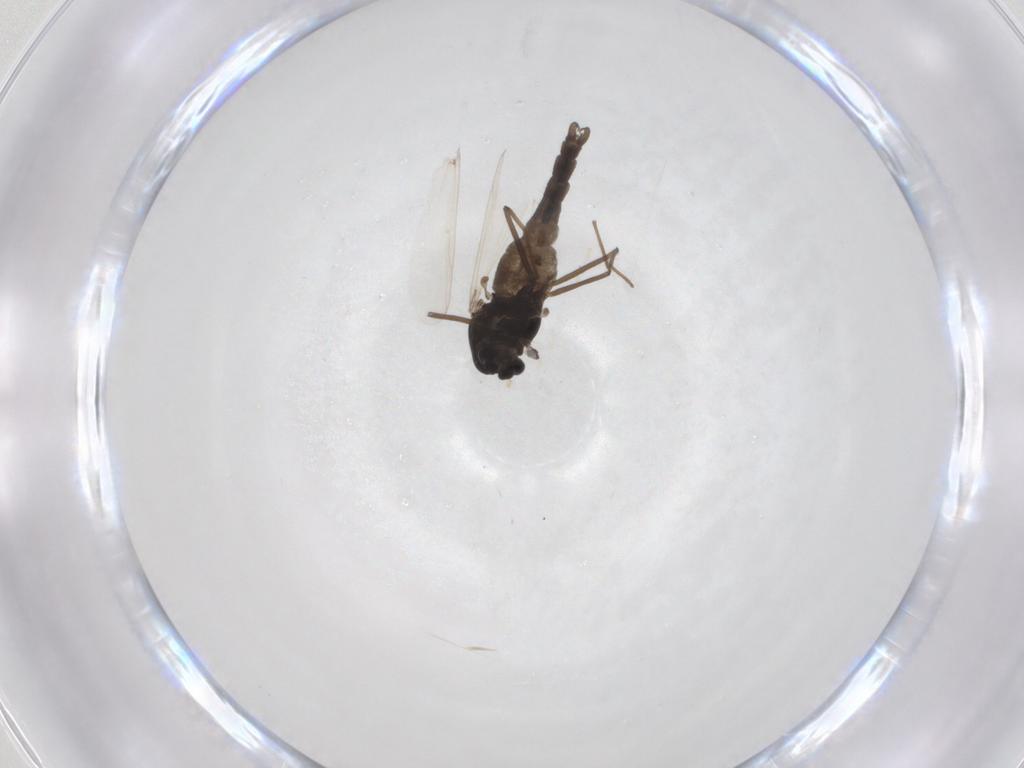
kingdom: Animalia
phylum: Arthropoda
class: Insecta
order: Diptera
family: Chironomidae
